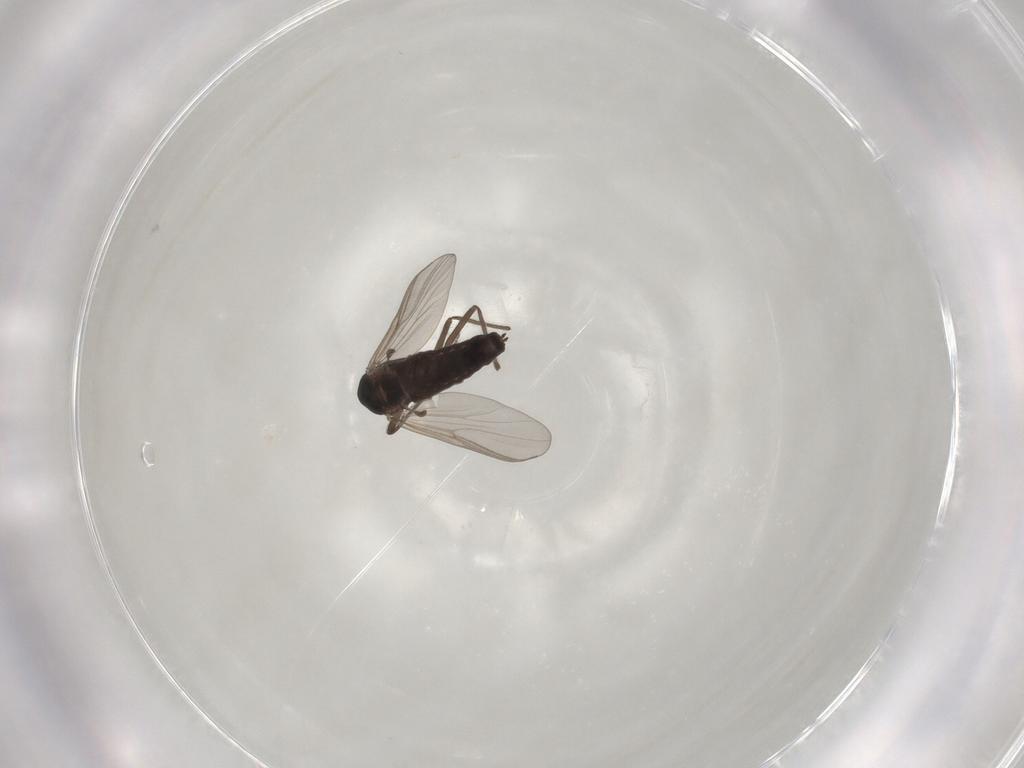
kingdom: Animalia
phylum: Arthropoda
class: Insecta
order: Diptera
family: Chironomidae
